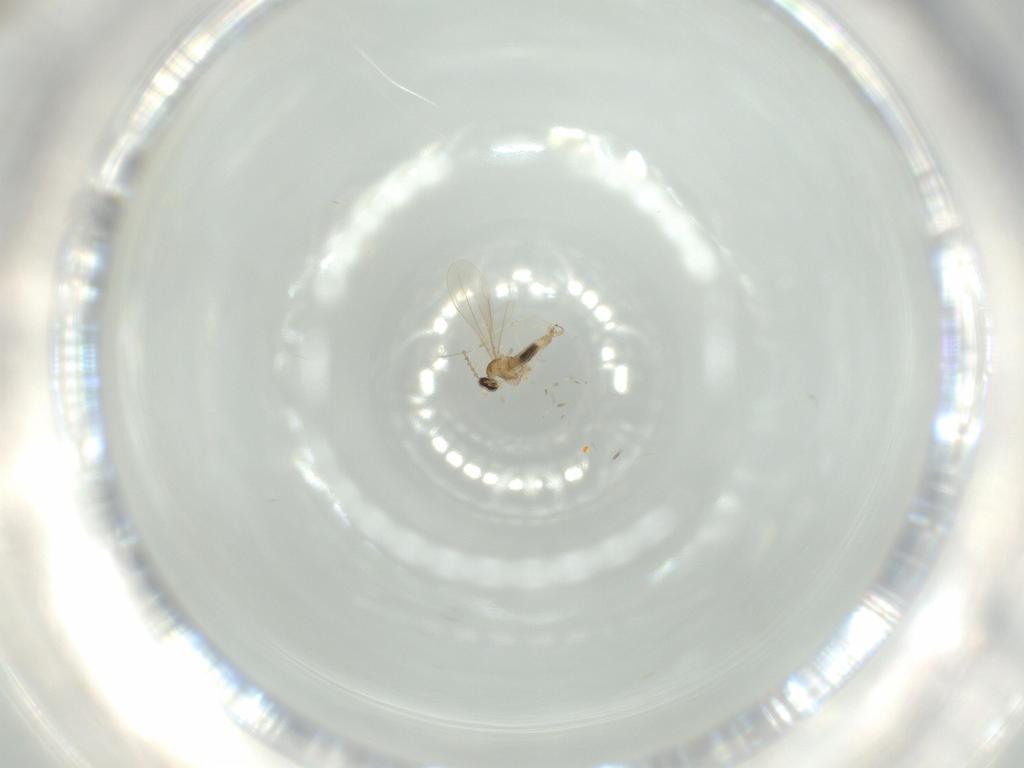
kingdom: Animalia
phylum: Arthropoda
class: Insecta
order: Diptera
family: Cecidomyiidae
